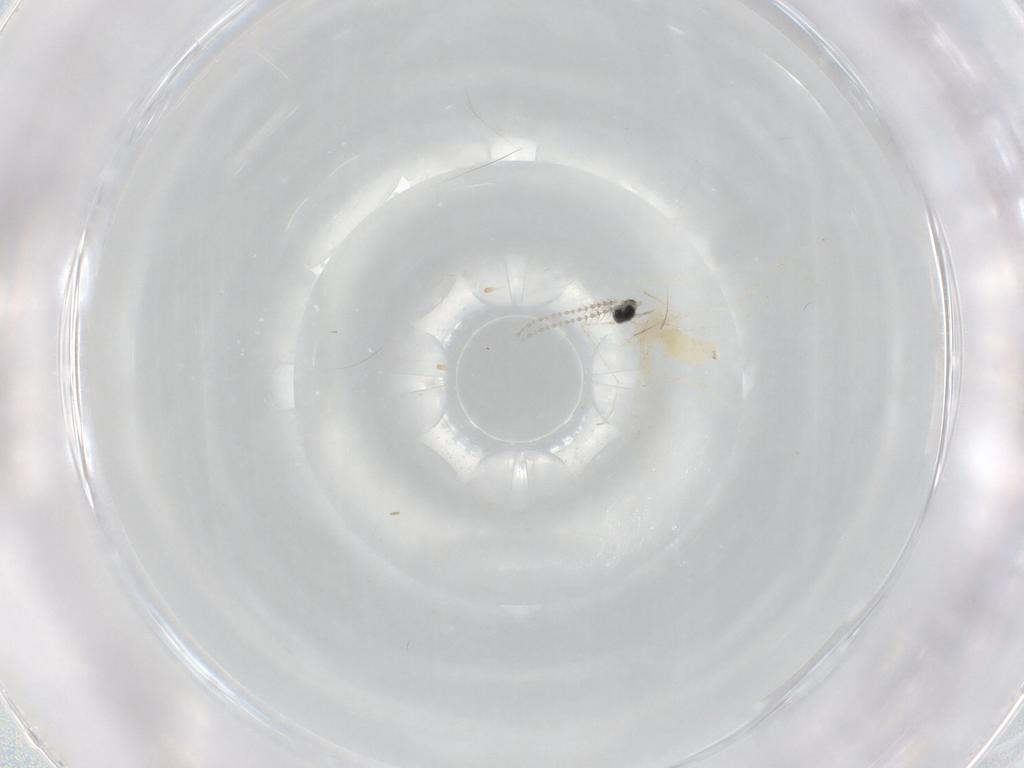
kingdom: Animalia
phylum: Arthropoda
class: Insecta
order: Diptera
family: Cecidomyiidae
